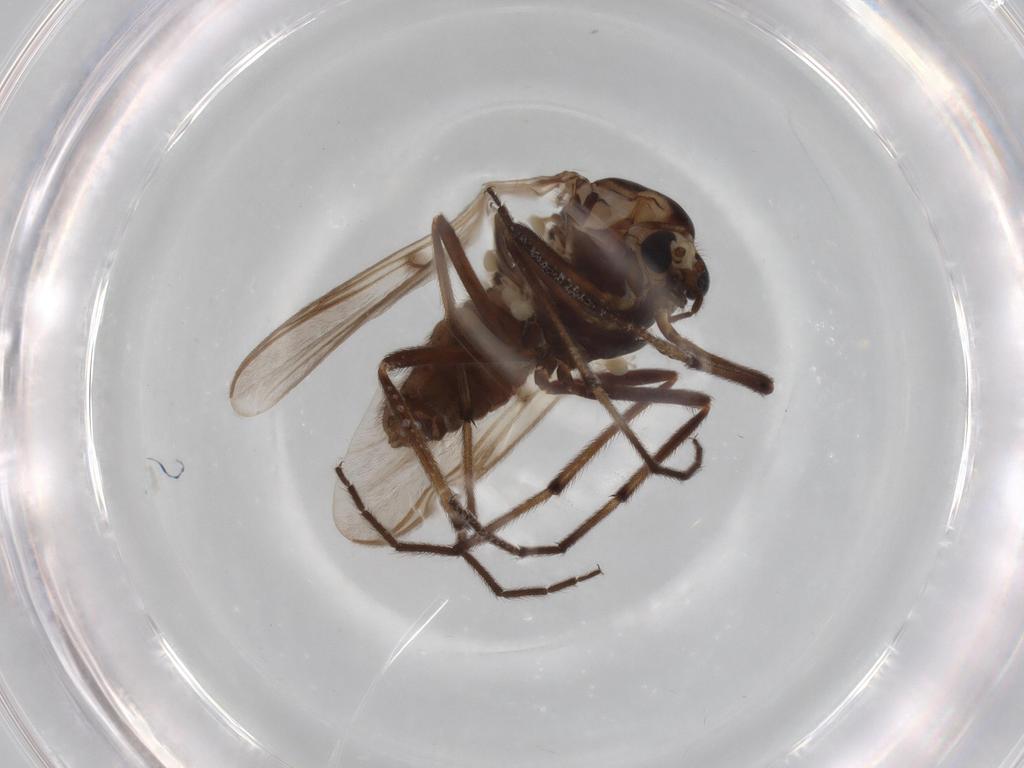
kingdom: Animalia
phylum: Arthropoda
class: Insecta
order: Diptera
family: Chironomidae
